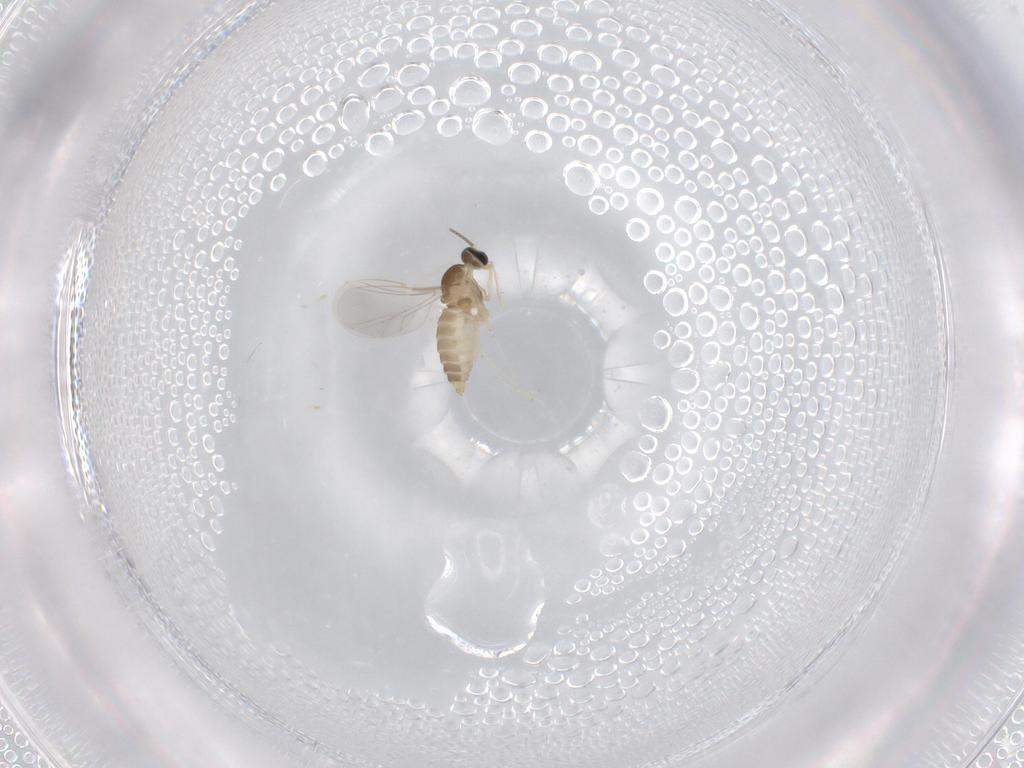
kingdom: Animalia
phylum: Arthropoda
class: Insecta
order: Diptera
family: Cecidomyiidae
